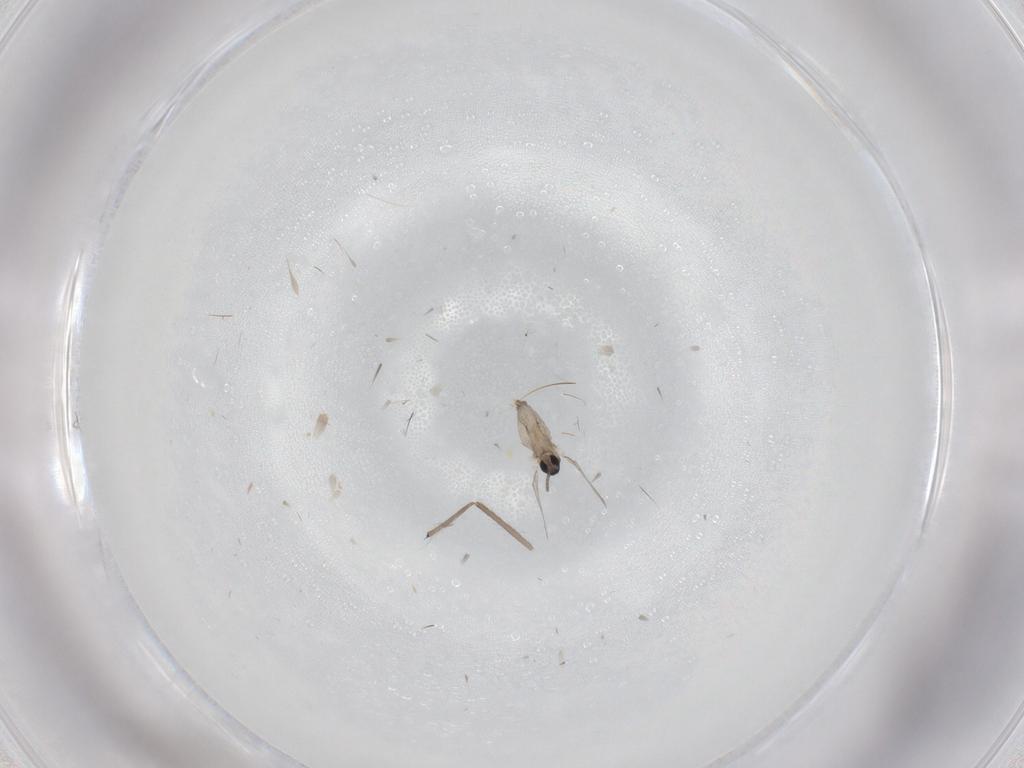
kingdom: Animalia
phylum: Arthropoda
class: Insecta
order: Diptera
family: Cecidomyiidae
